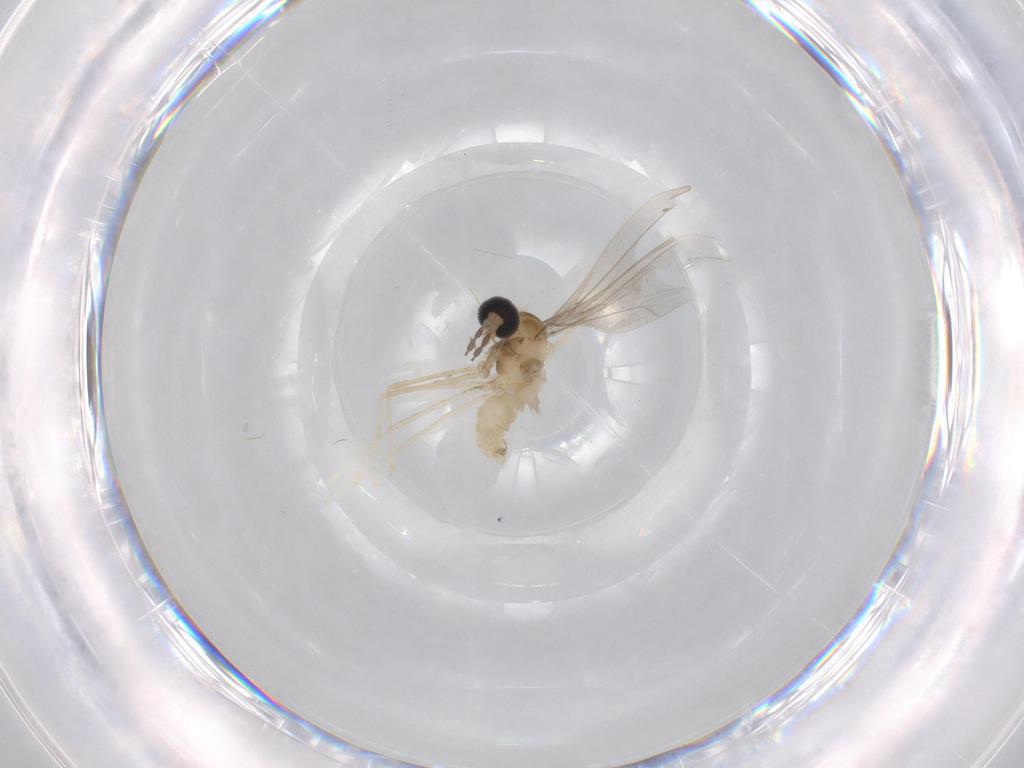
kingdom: Animalia
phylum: Arthropoda
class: Insecta
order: Diptera
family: Cecidomyiidae
